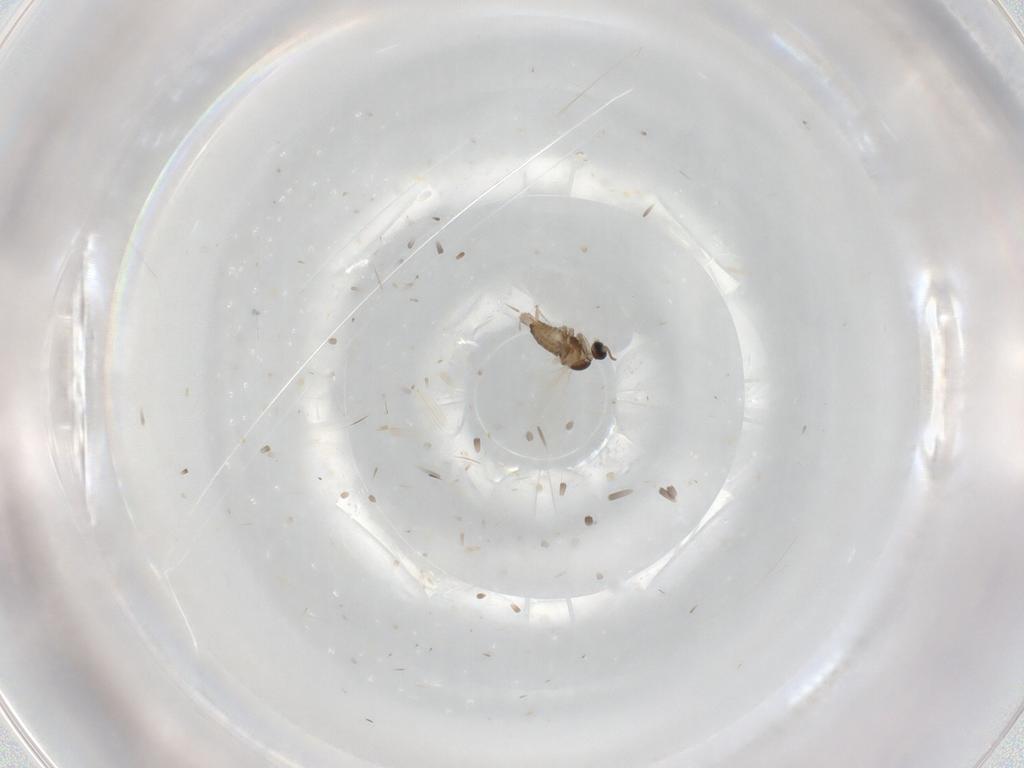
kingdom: Animalia
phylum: Arthropoda
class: Insecta
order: Diptera
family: Cecidomyiidae
